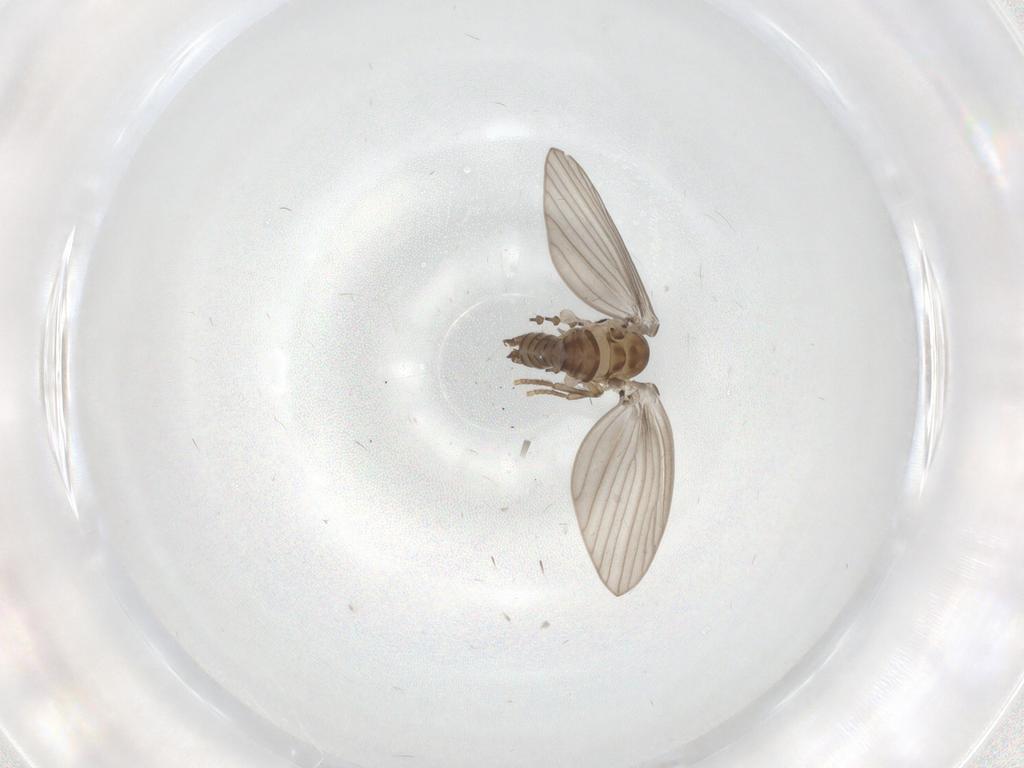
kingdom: Animalia
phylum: Arthropoda
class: Insecta
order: Diptera
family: Sciaridae
